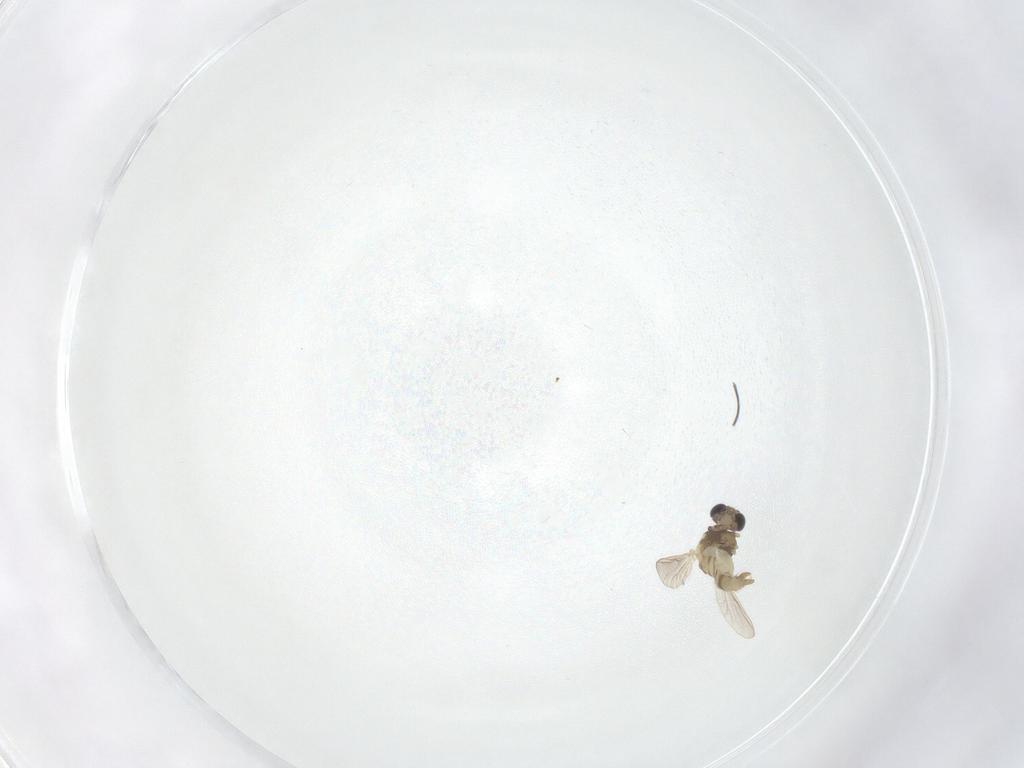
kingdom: Animalia
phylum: Arthropoda
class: Insecta
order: Diptera
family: Chironomidae
